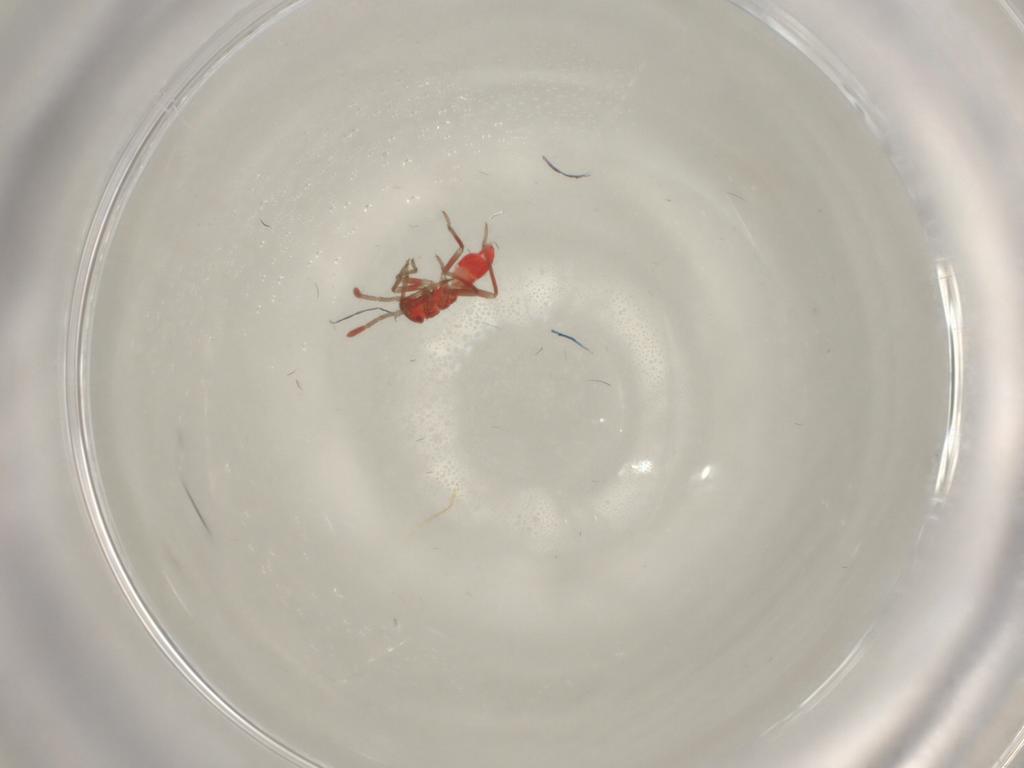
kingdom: Animalia
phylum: Arthropoda
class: Insecta
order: Hemiptera
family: Miridae
